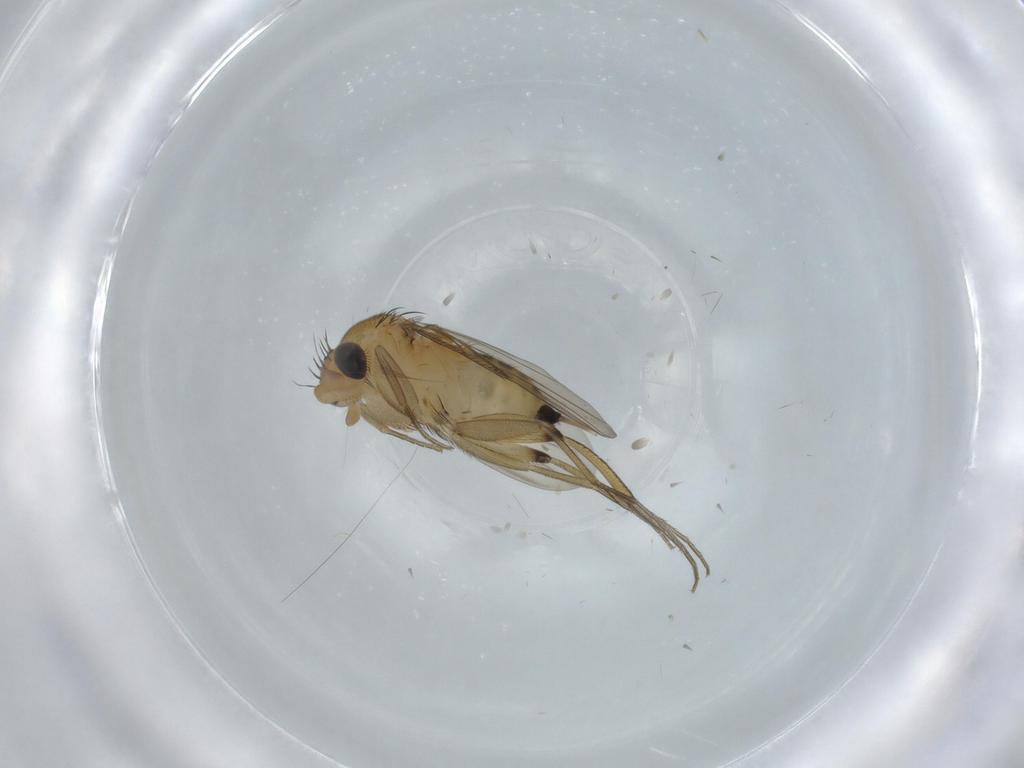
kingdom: Animalia
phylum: Arthropoda
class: Insecta
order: Diptera
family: Phoridae
